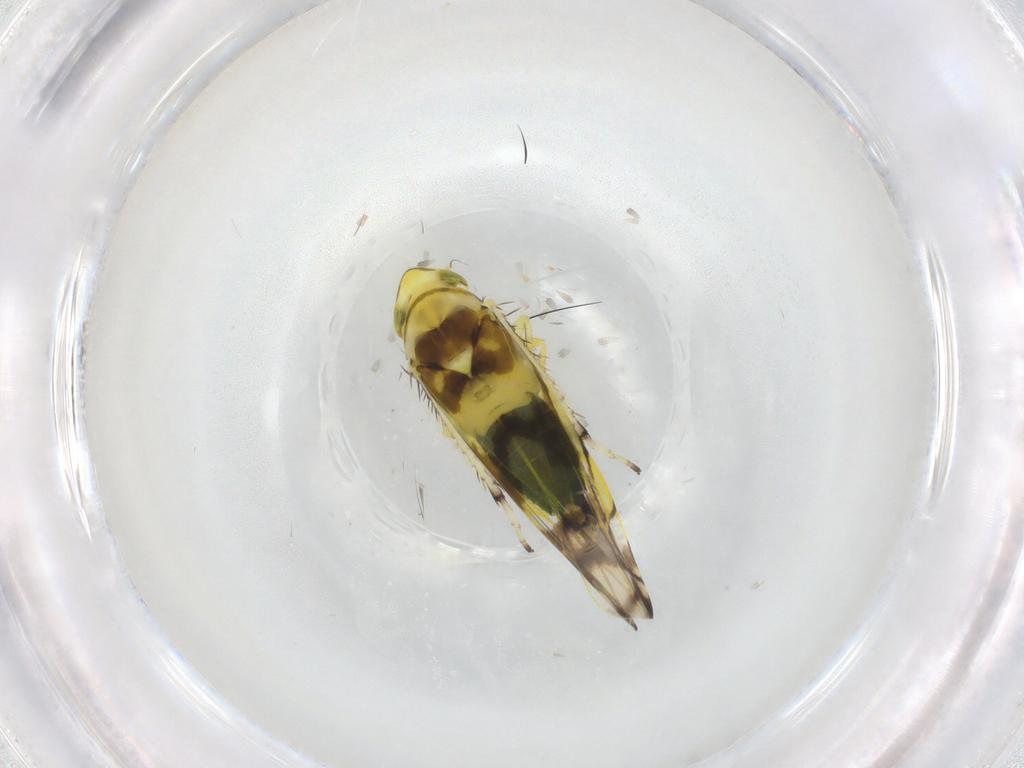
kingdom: Animalia
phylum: Arthropoda
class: Insecta
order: Hemiptera
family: Cicadellidae
